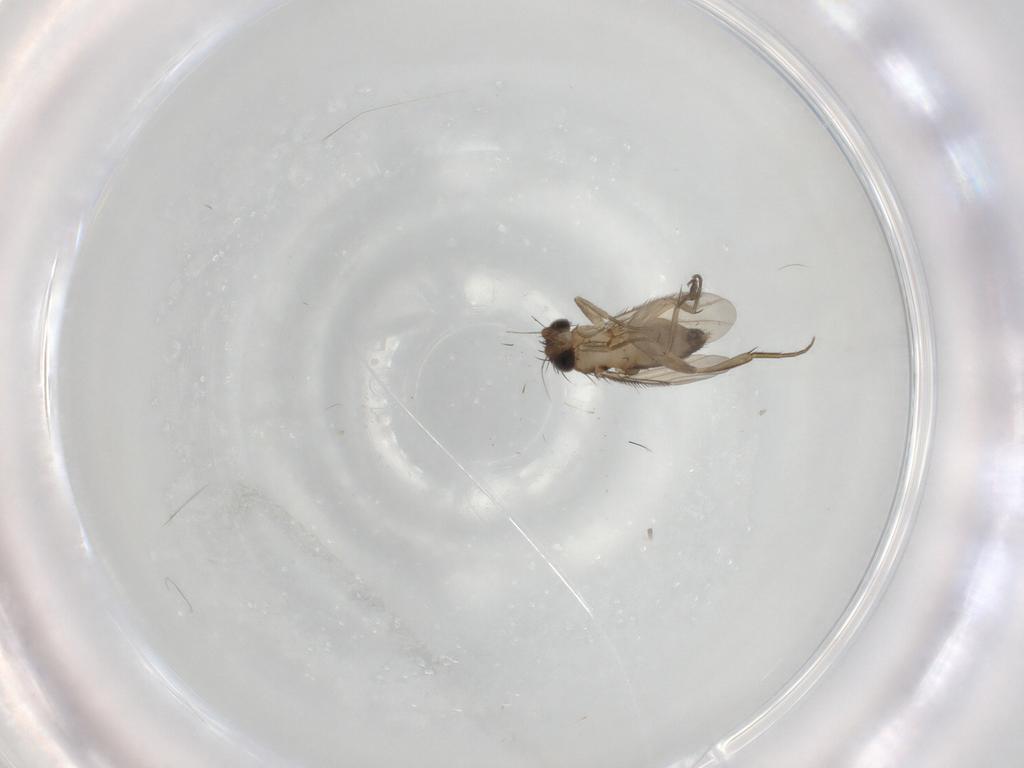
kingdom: Animalia
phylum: Arthropoda
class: Insecta
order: Diptera
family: Phoridae
